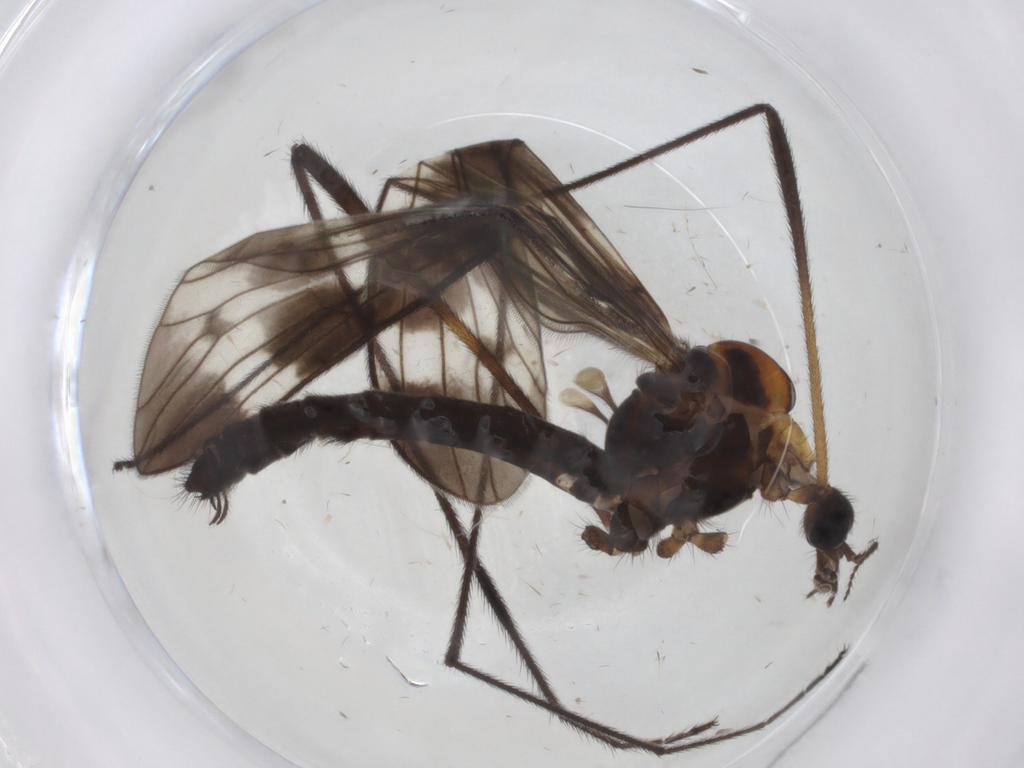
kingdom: Animalia
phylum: Arthropoda
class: Insecta
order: Diptera
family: Limoniidae
